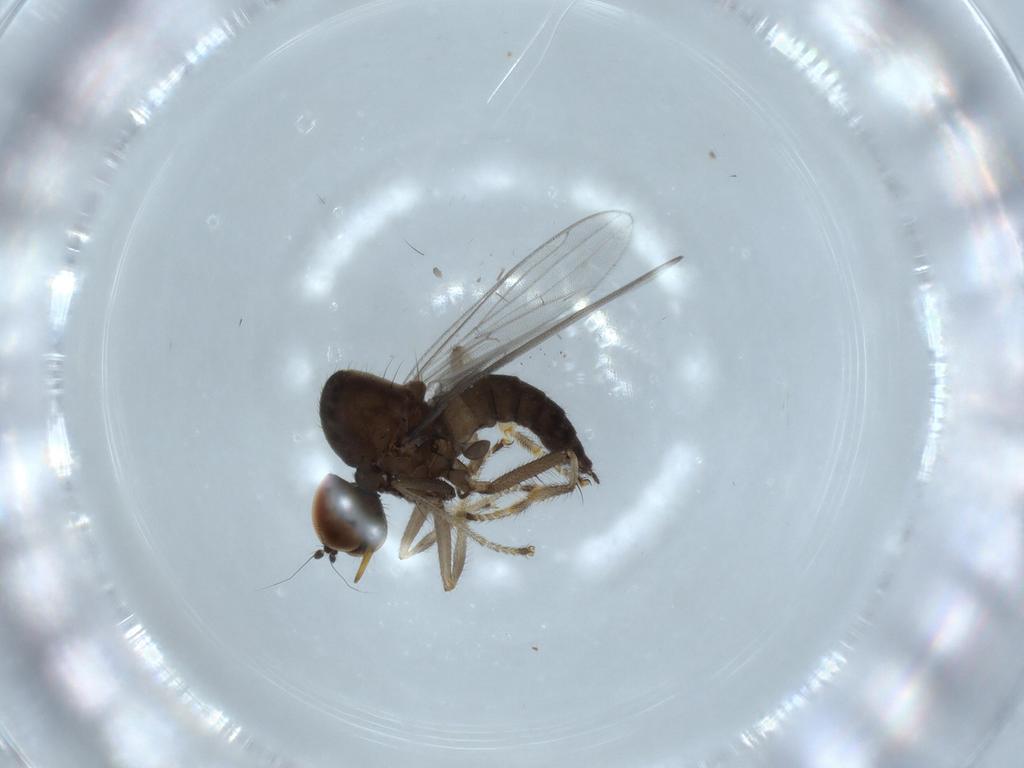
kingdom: Animalia
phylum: Arthropoda
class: Insecta
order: Diptera
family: Hybotidae
